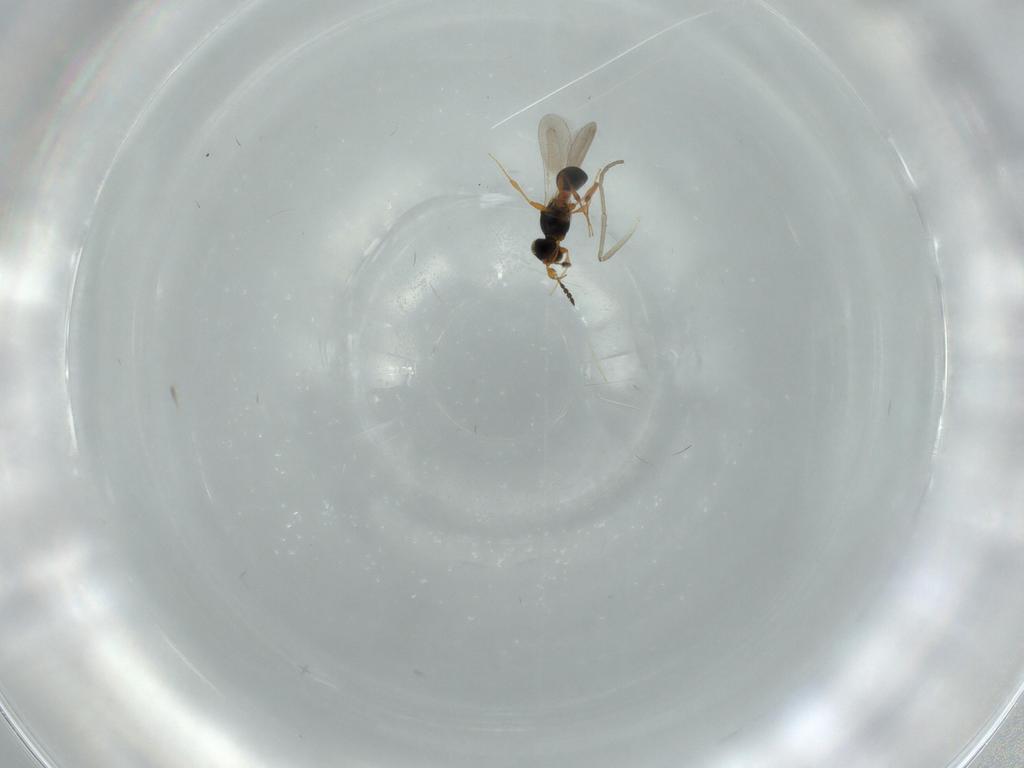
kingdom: Animalia
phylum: Arthropoda
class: Insecta
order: Hymenoptera
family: Platygastridae
